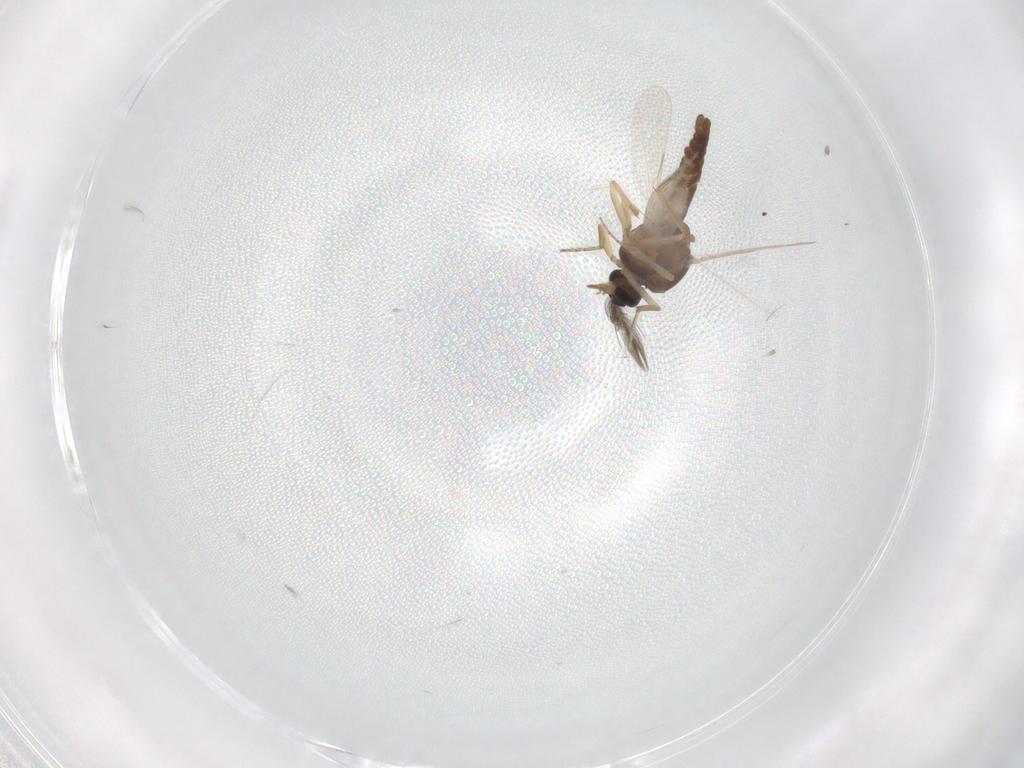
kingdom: Animalia
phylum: Arthropoda
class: Insecta
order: Diptera
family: Ceratopogonidae
